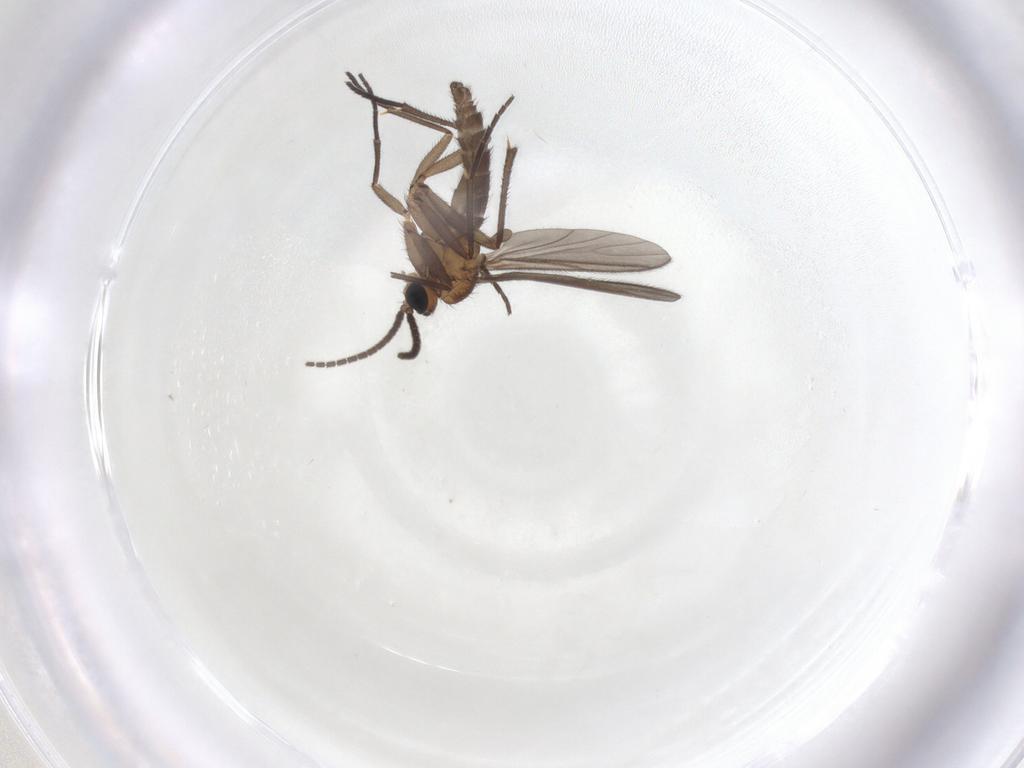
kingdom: Animalia
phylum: Arthropoda
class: Insecta
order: Diptera
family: Sciaridae
